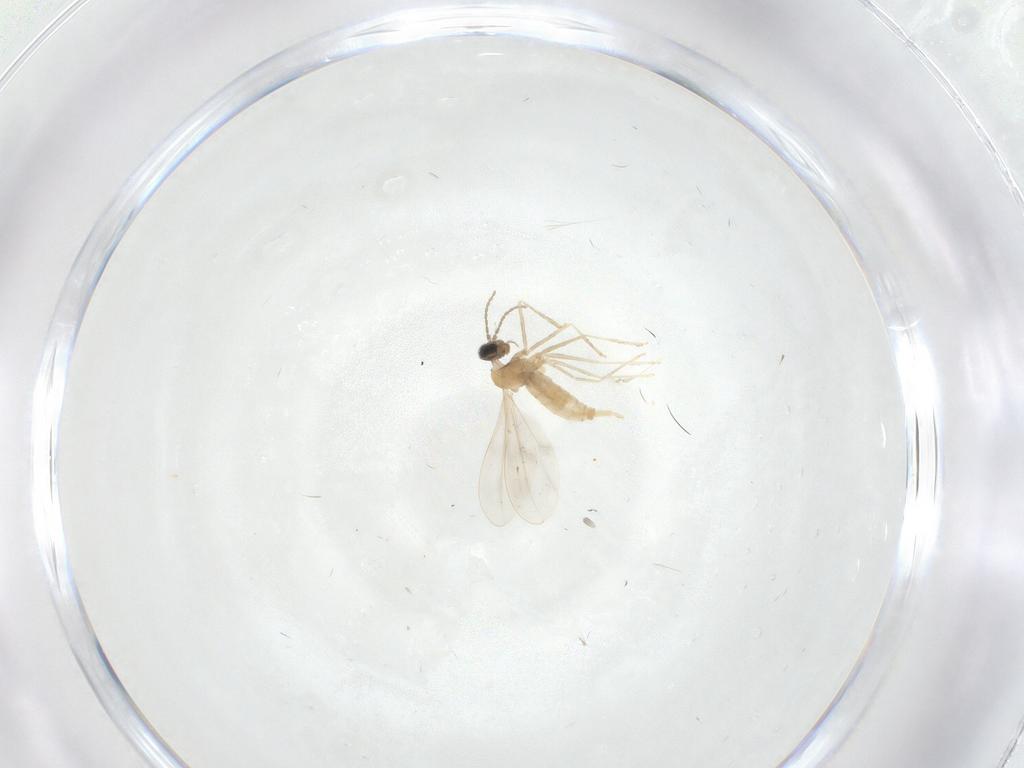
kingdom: Animalia
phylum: Arthropoda
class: Insecta
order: Diptera
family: Cecidomyiidae
